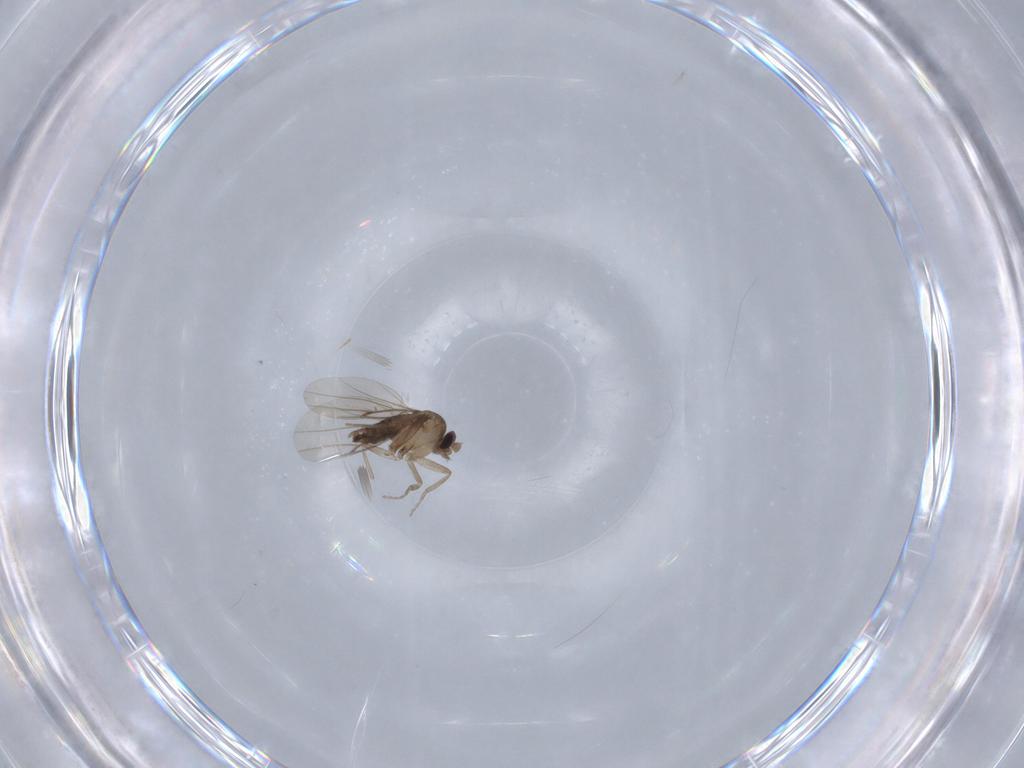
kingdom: Animalia
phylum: Arthropoda
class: Insecta
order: Diptera
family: Phoridae
